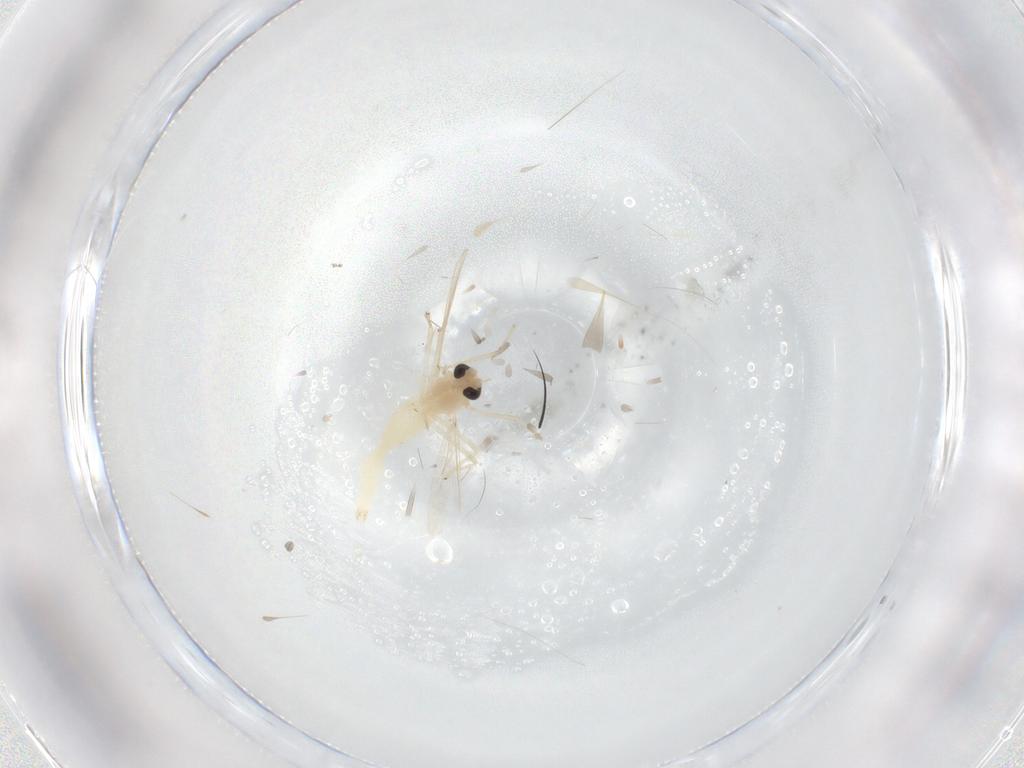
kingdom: Animalia
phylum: Arthropoda
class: Insecta
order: Diptera
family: Chironomidae
